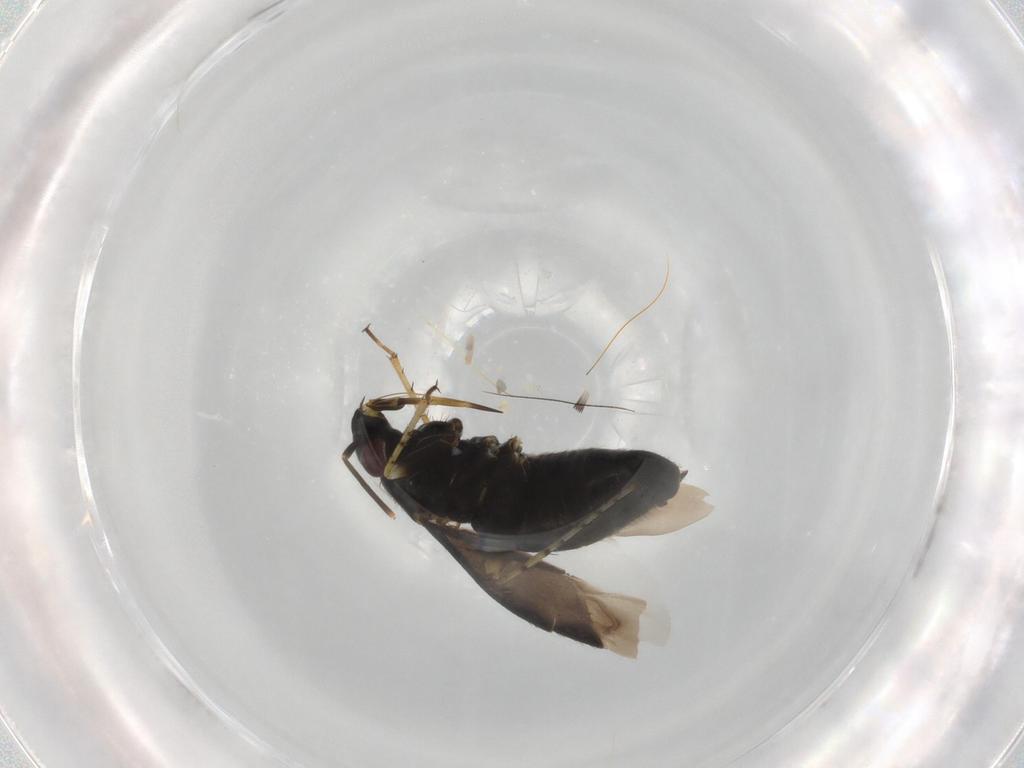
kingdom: Animalia
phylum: Arthropoda
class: Insecta
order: Hemiptera
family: Miridae
